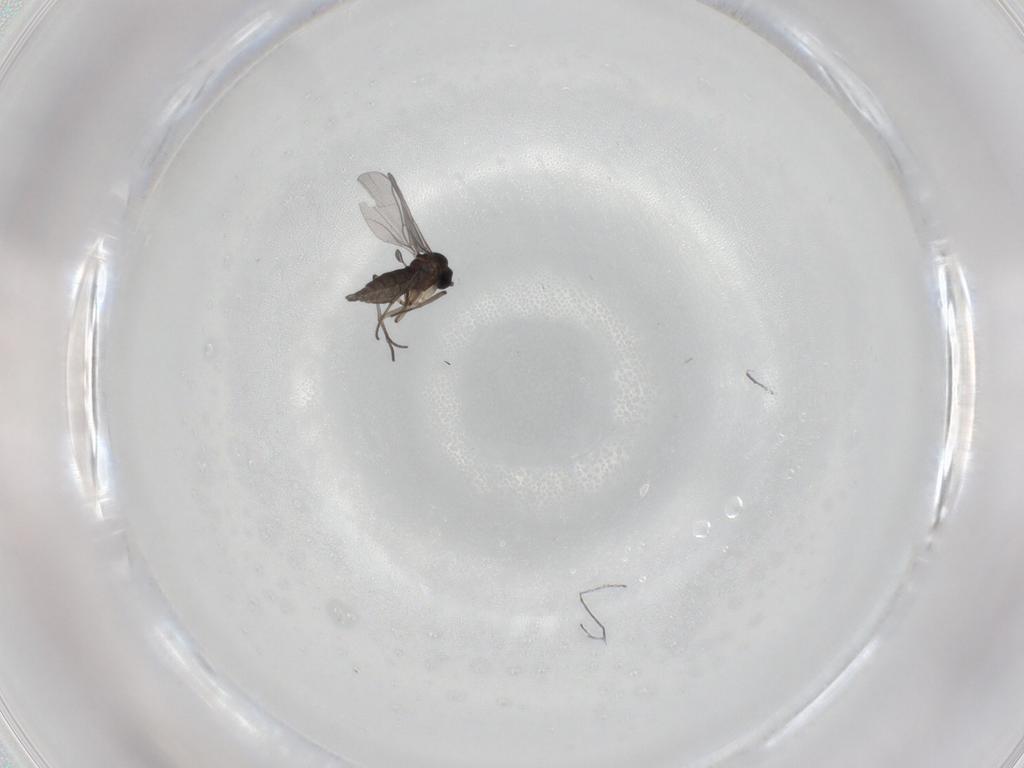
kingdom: Animalia
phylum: Arthropoda
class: Insecta
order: Diptera
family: Sciaridae
